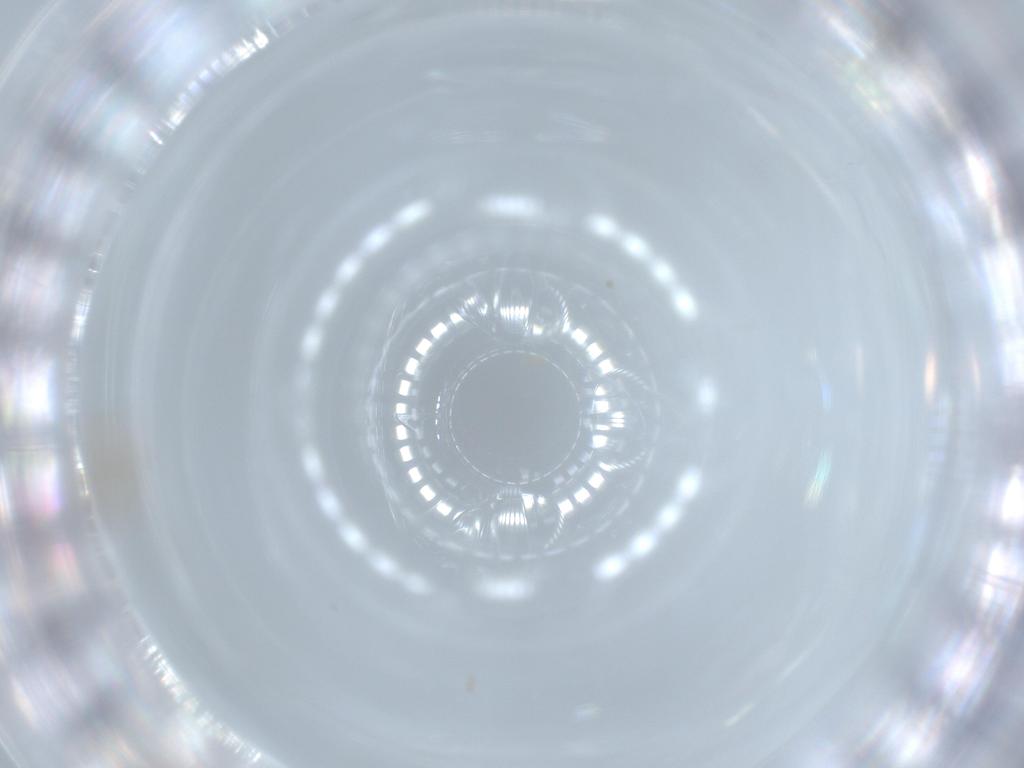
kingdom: Animalia
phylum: Arthropoda
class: Insecta
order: Diptera
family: Cecidomyiidae
